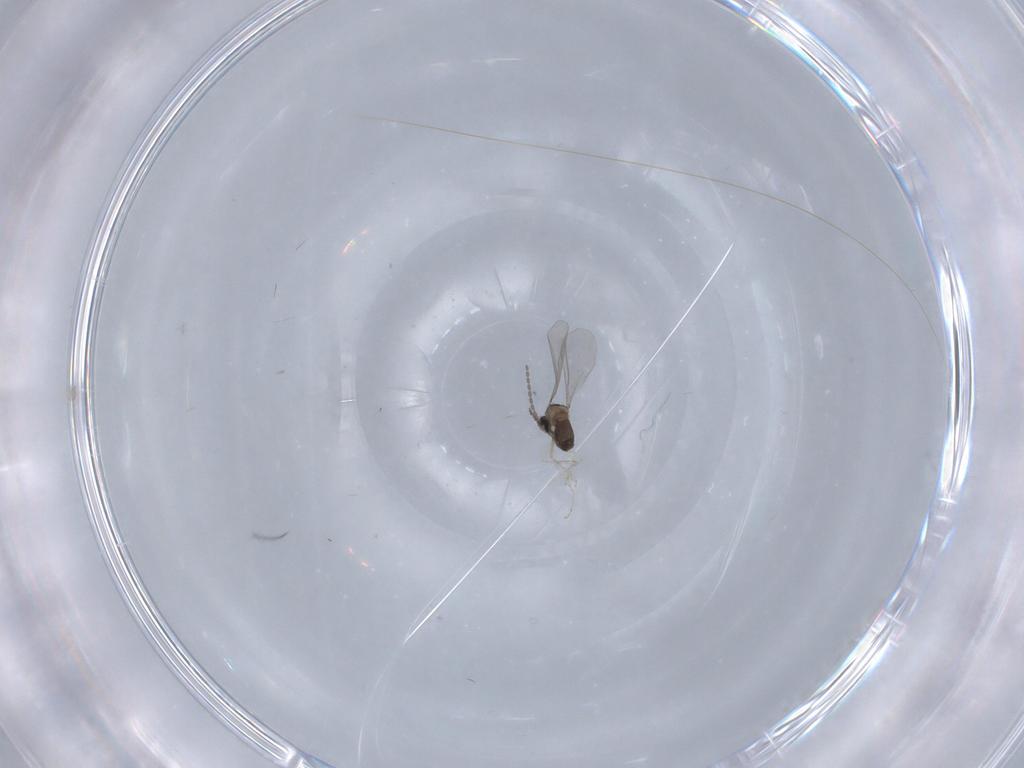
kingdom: Animalia
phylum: Arthropoda
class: Insecta
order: Diptera
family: Cecidomyiidae
